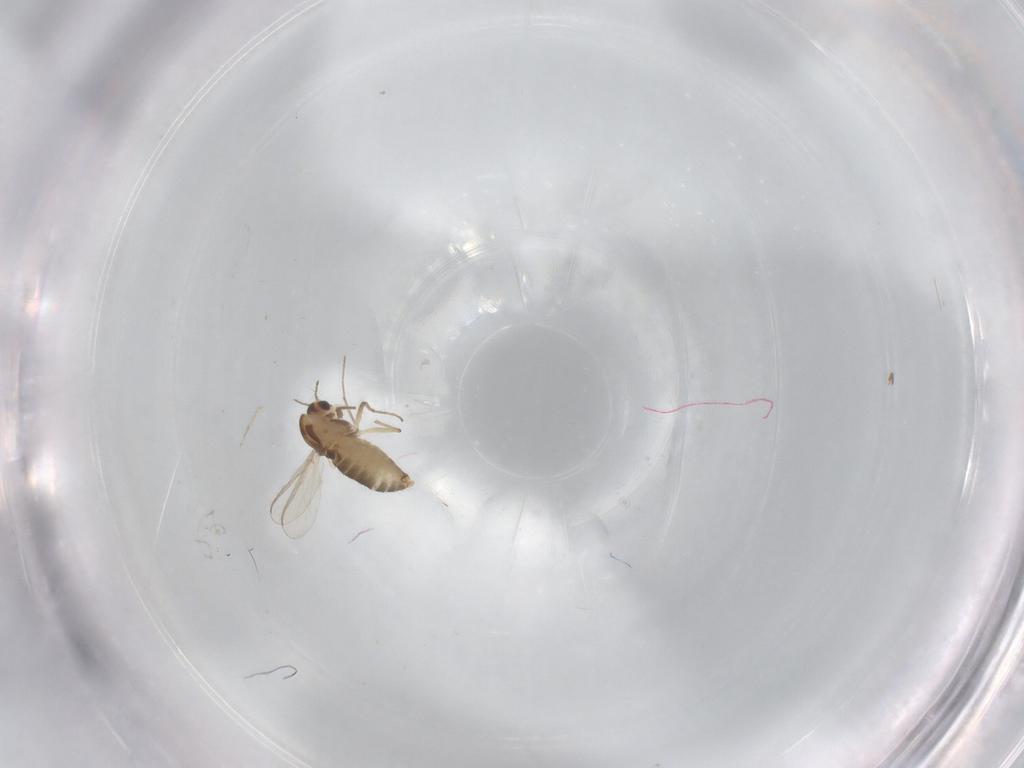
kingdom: Animalia
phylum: Arthropoda
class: Insecta
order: Diptera
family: Chironomidae
